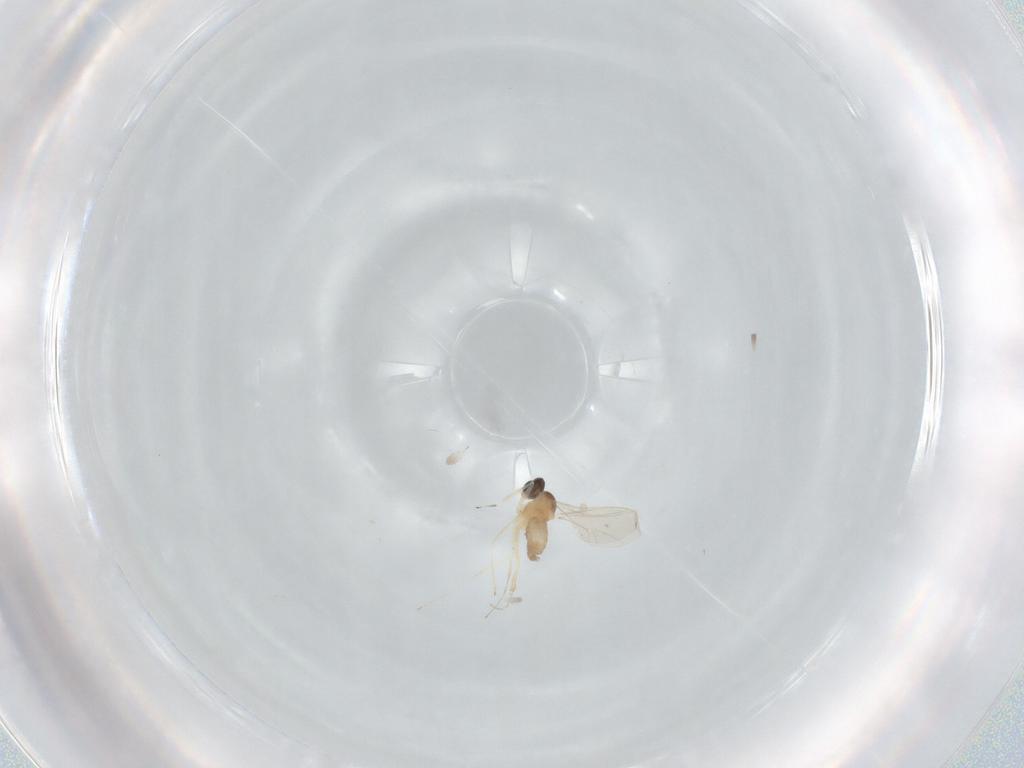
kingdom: Animalia
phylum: Arthropoda
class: Insecta
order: Diptera
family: Cecidomyiidae
